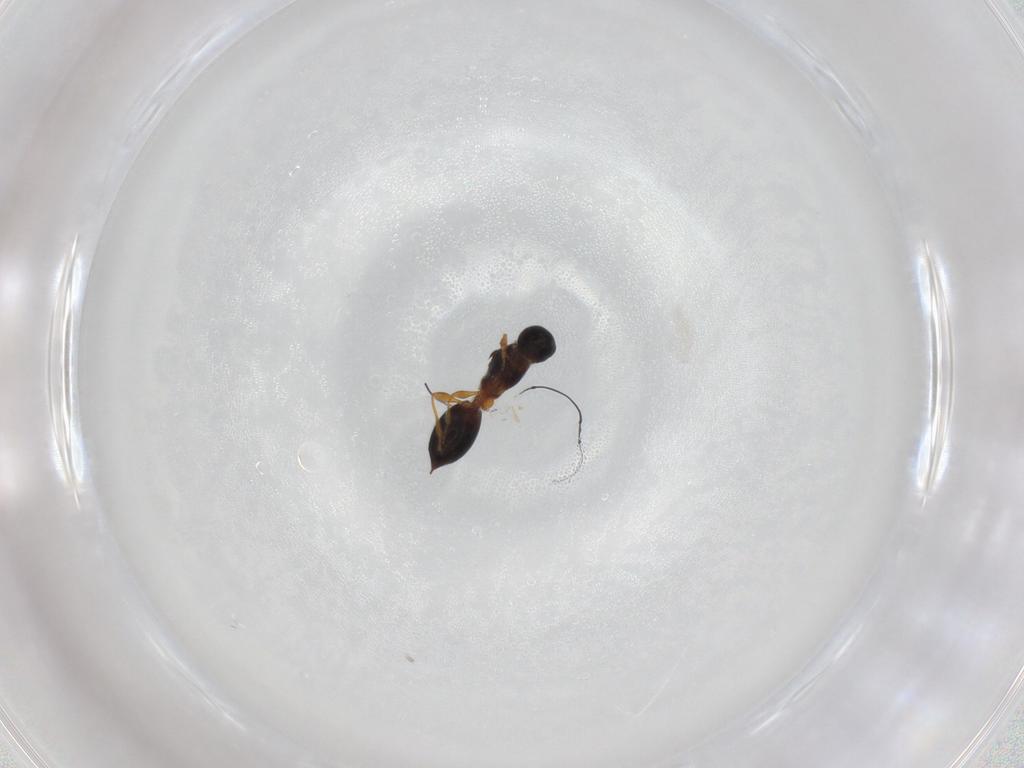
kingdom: Animalia
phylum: Arthropoda
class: Insecta
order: Hymenoptera
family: Diapriidae
